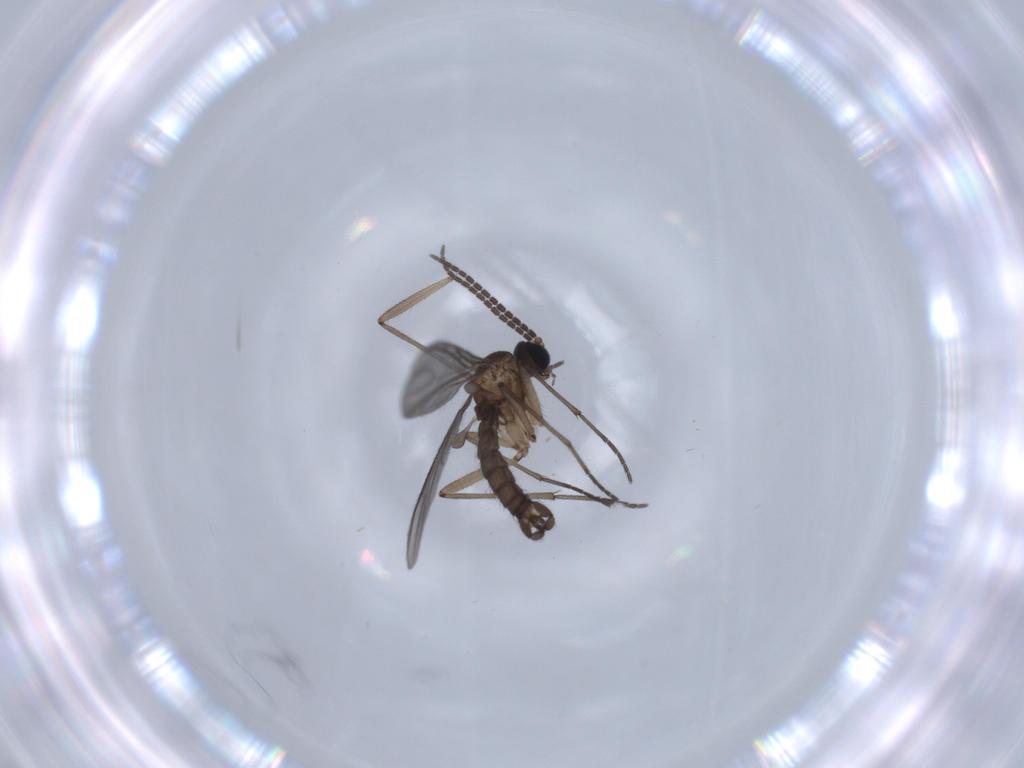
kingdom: Animalia
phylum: Arthropoda
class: Insecta
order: Diptera
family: Sciaridae
